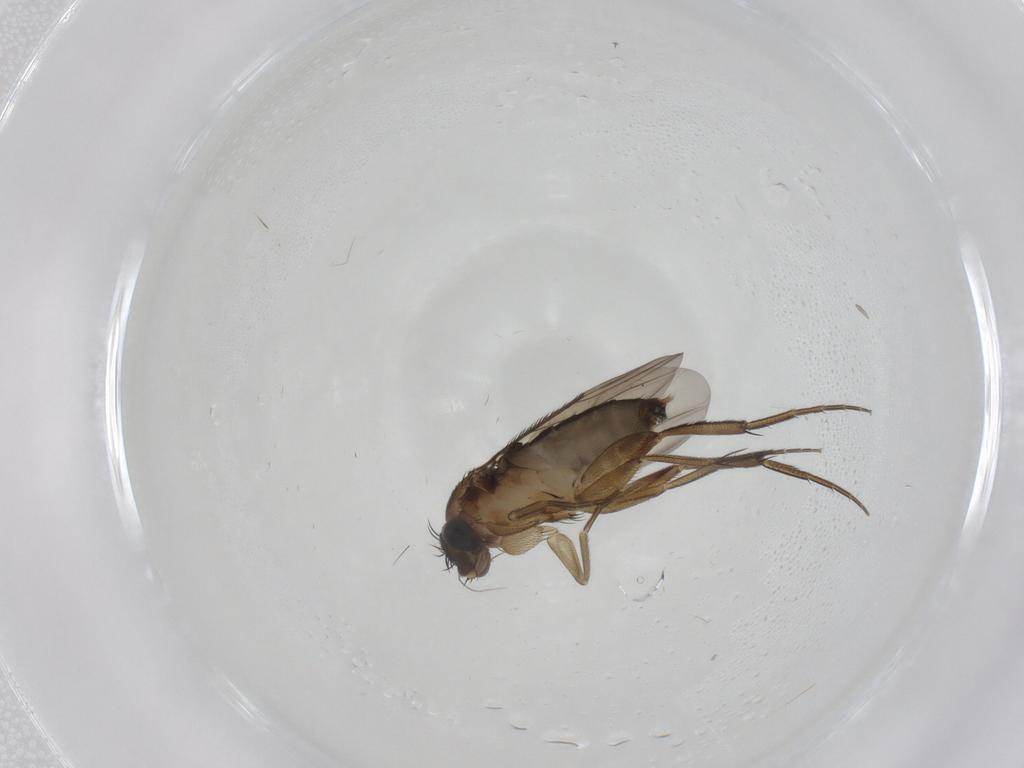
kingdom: Animalia
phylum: Arthropoda
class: Insecta
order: Diptera
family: Phoridae
